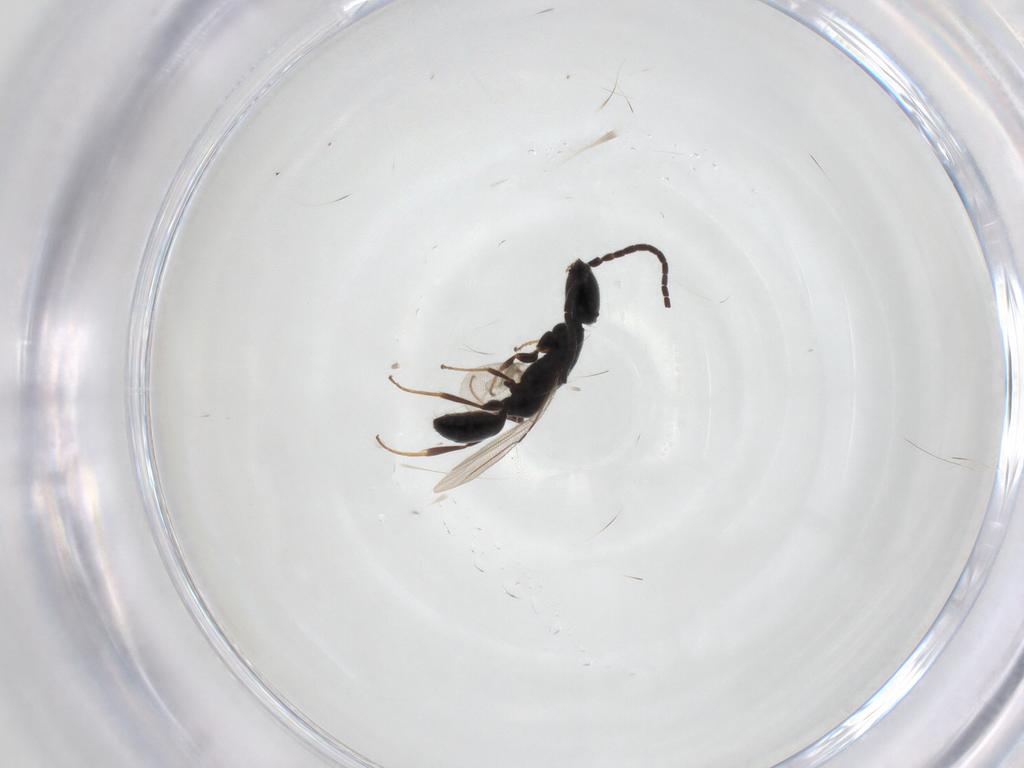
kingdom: Animalia
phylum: Arthropoda
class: Insecta
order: Hymenoptera
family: Bethylidae
